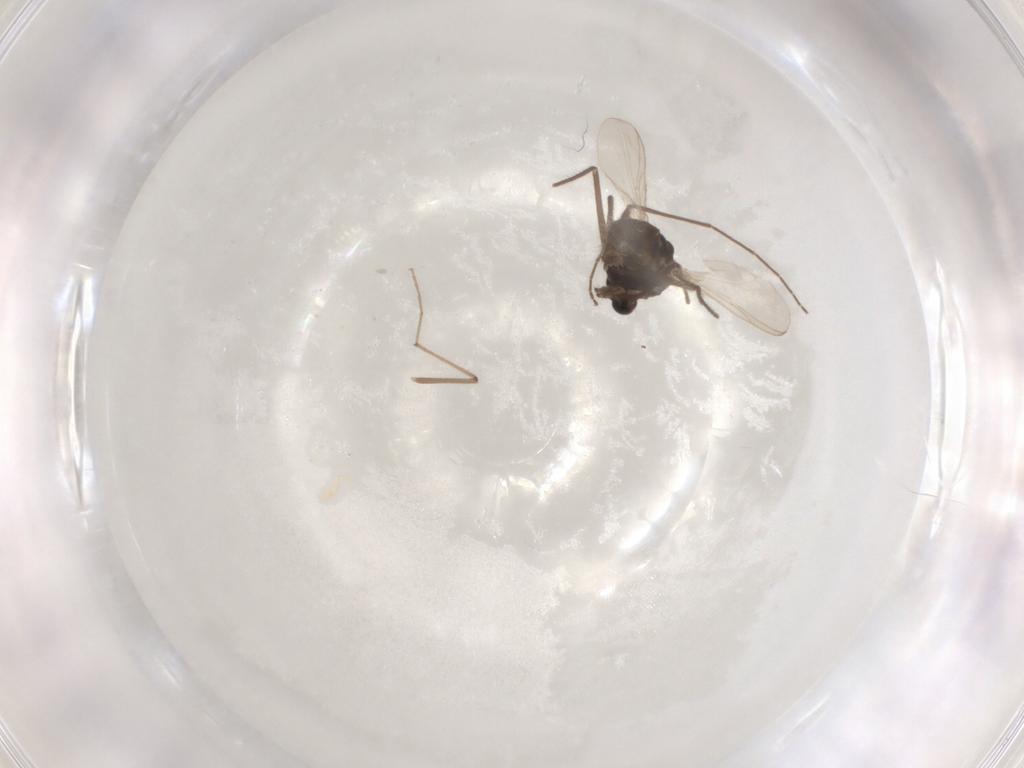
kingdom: Animalia
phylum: Arthropoda
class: Insecta
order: Diptera
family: Chironomidae
